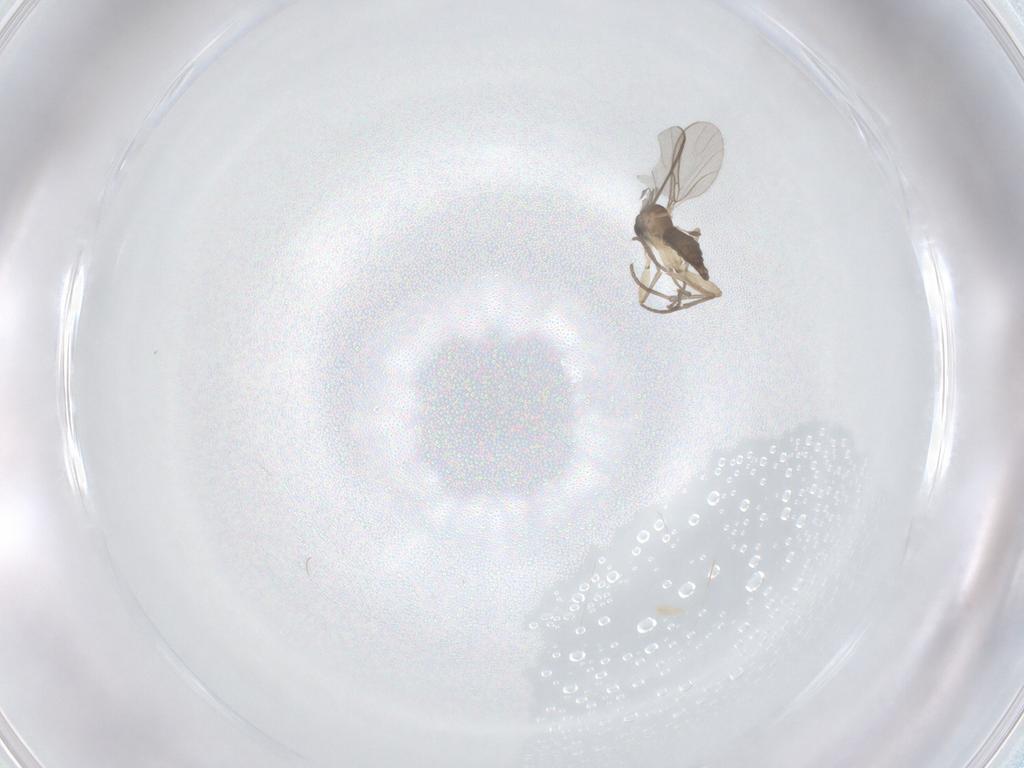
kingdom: Animalia
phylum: Arthropoda
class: Insecta
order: Diptera
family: Sciaridae
